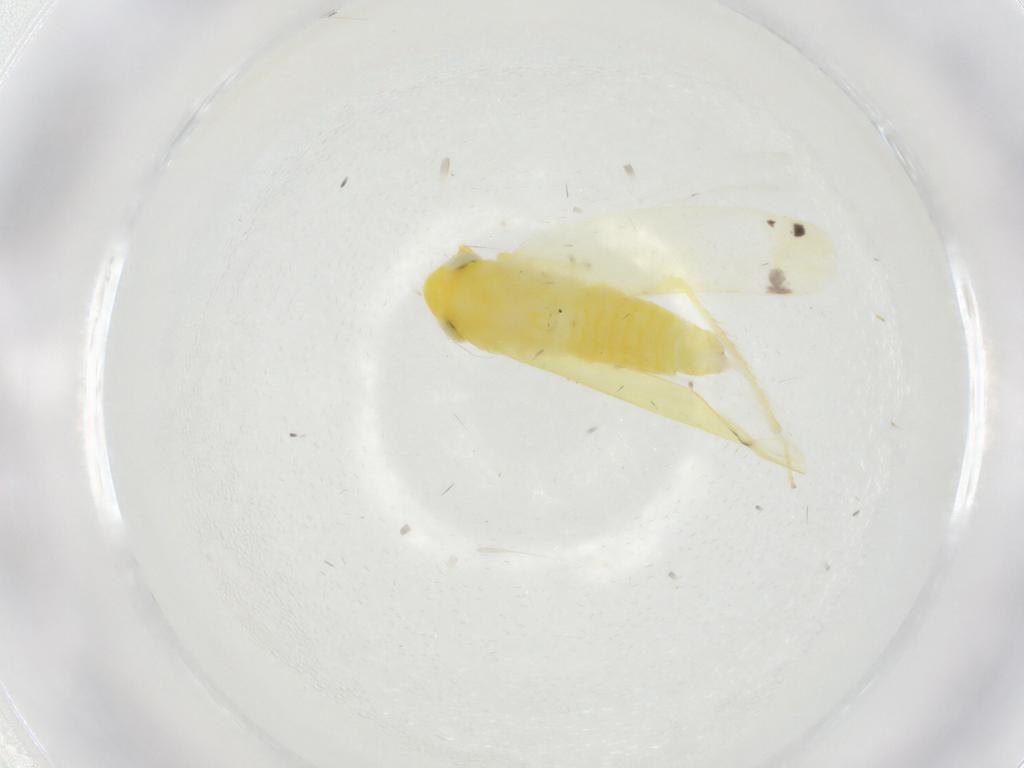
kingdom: Animalia
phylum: Arthropoda
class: Insecta
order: Hemiptera
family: Cicadellidae
